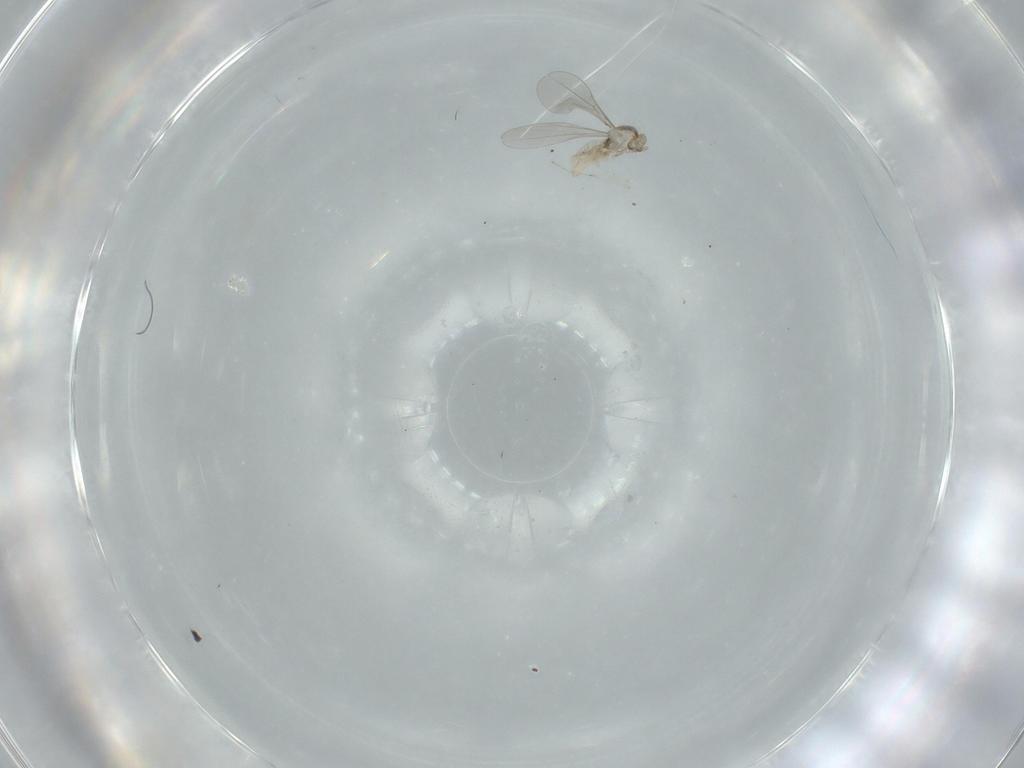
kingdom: Animalia
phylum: Arthropoda
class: Insecta
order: Diptera
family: Cecidomyiidae
